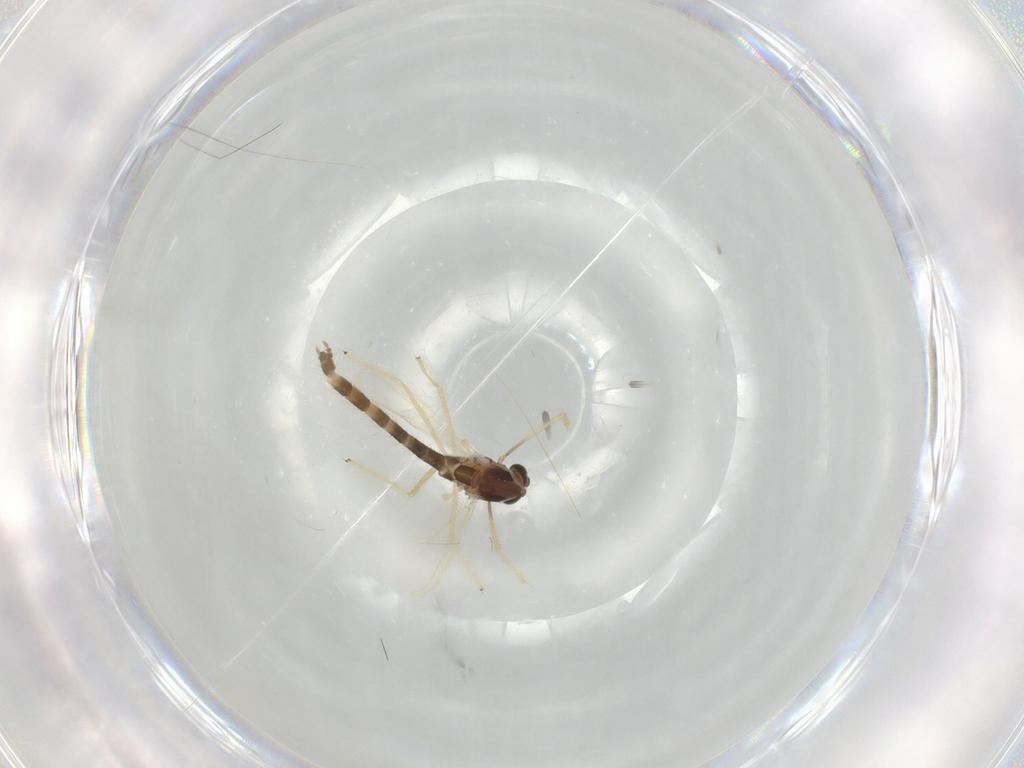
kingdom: Animalia
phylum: Arthropoda
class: Insecta
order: Diptera
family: Chironomidae
